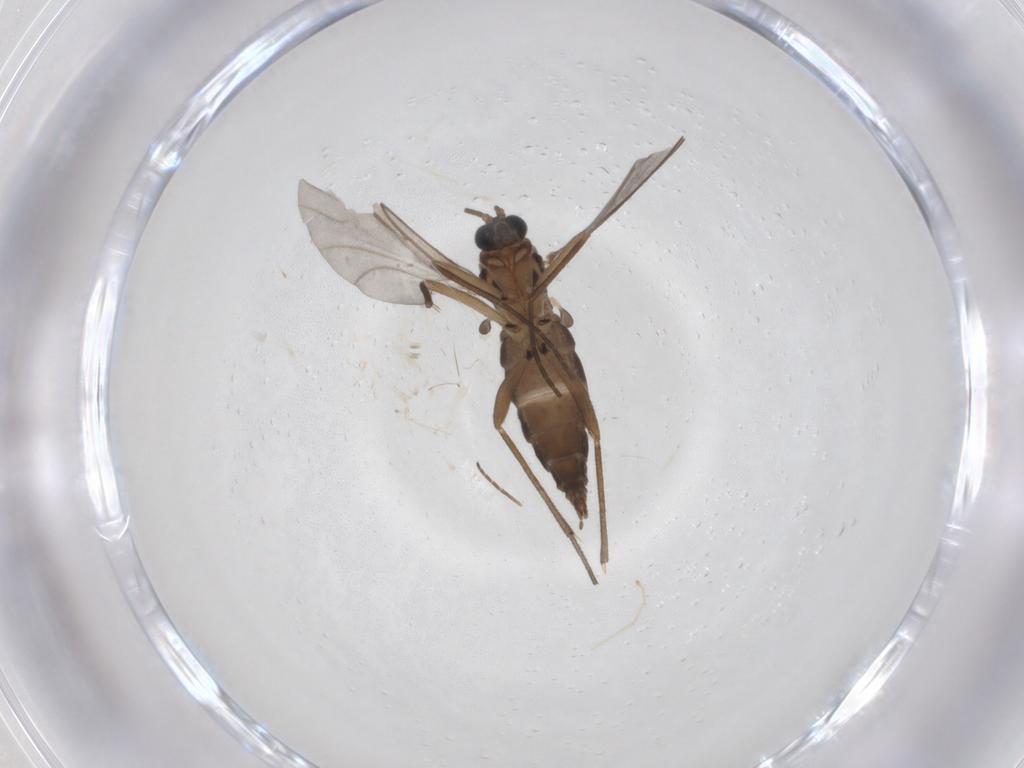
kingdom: Animalia
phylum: Arthropoda
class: Insecta
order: Diptera
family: Sciaridae
